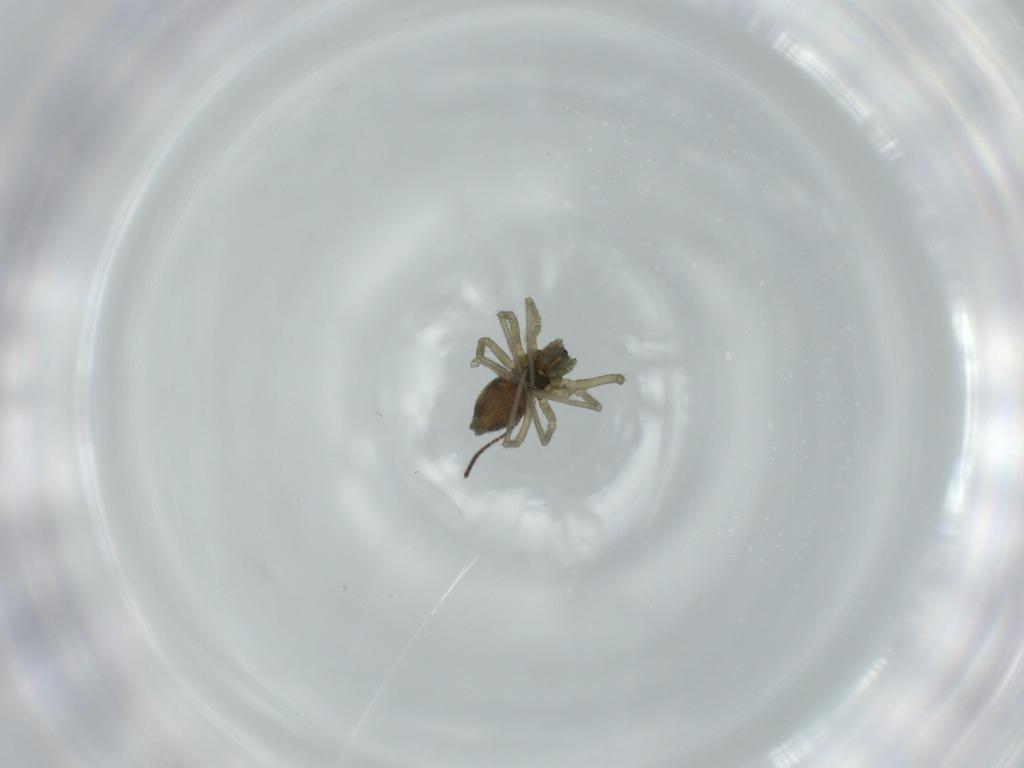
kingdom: Animalia
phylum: Arthropoda
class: Arachnida
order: Araneae
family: Linyphiidae
